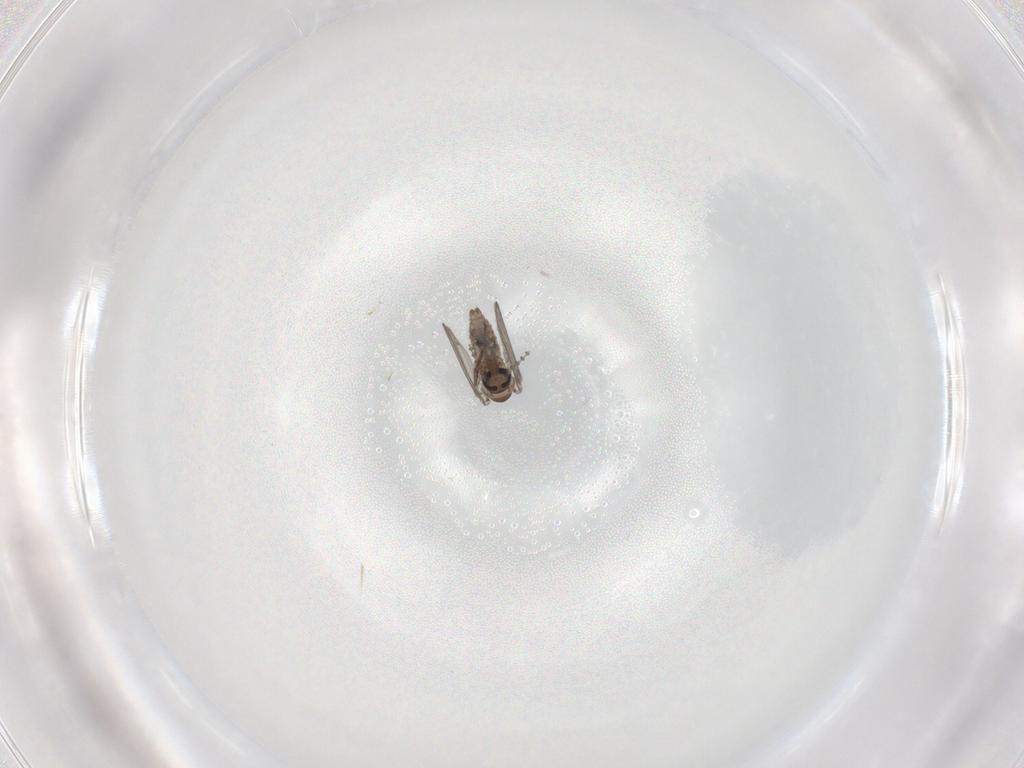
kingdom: Animalia
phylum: Arthropoda
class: Insecta
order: Diptera
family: Psychodidae
